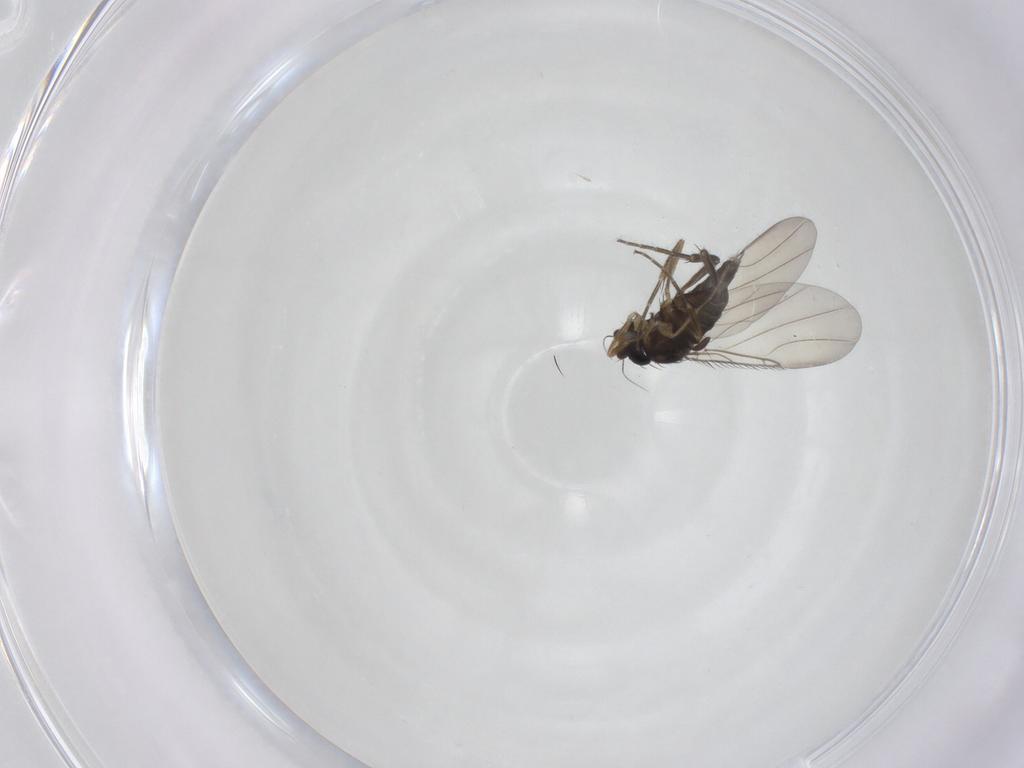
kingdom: Animalia
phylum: Arthropoda
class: Insecta
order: Diptera
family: Phoridae
